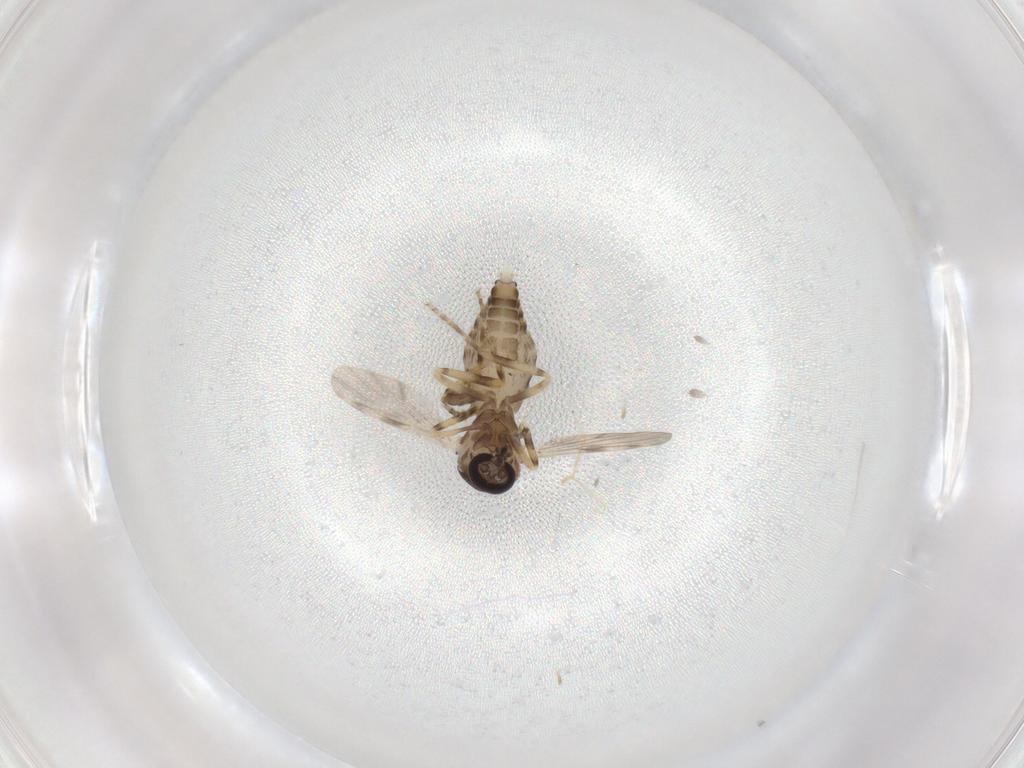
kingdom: Animalia
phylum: Arthropoda
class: Insecta
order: Diptera
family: Ceratopogonidae
